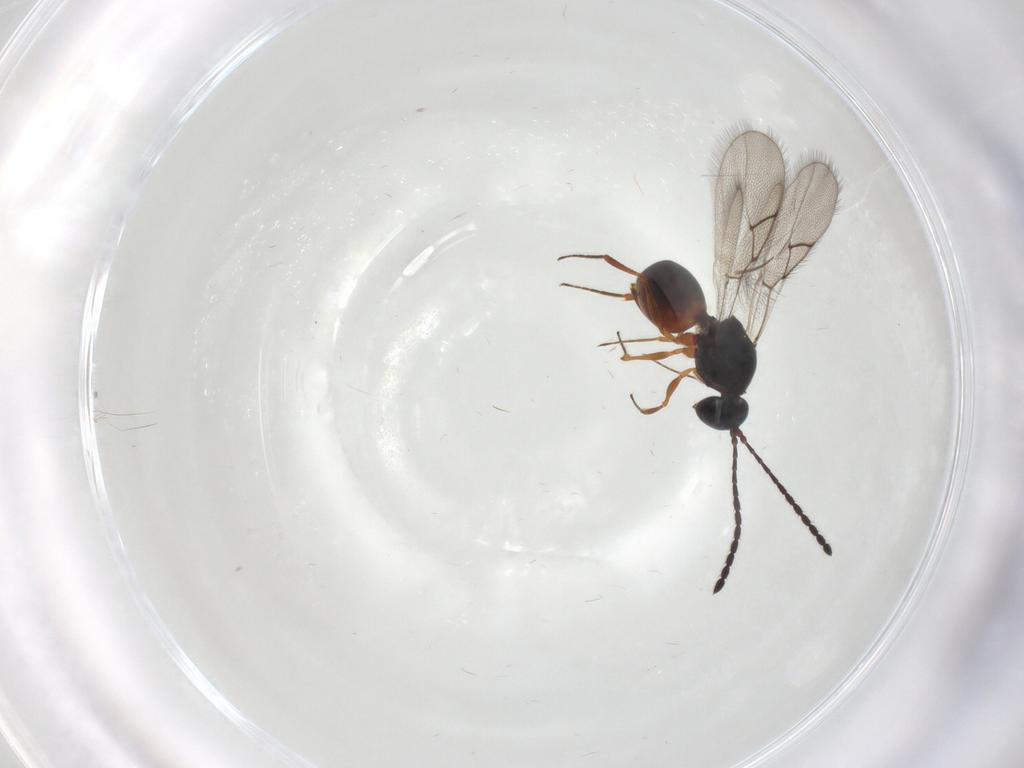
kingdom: Animalia
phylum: Arthropoda
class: Insecta
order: Hymenoptera
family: Figitidae
